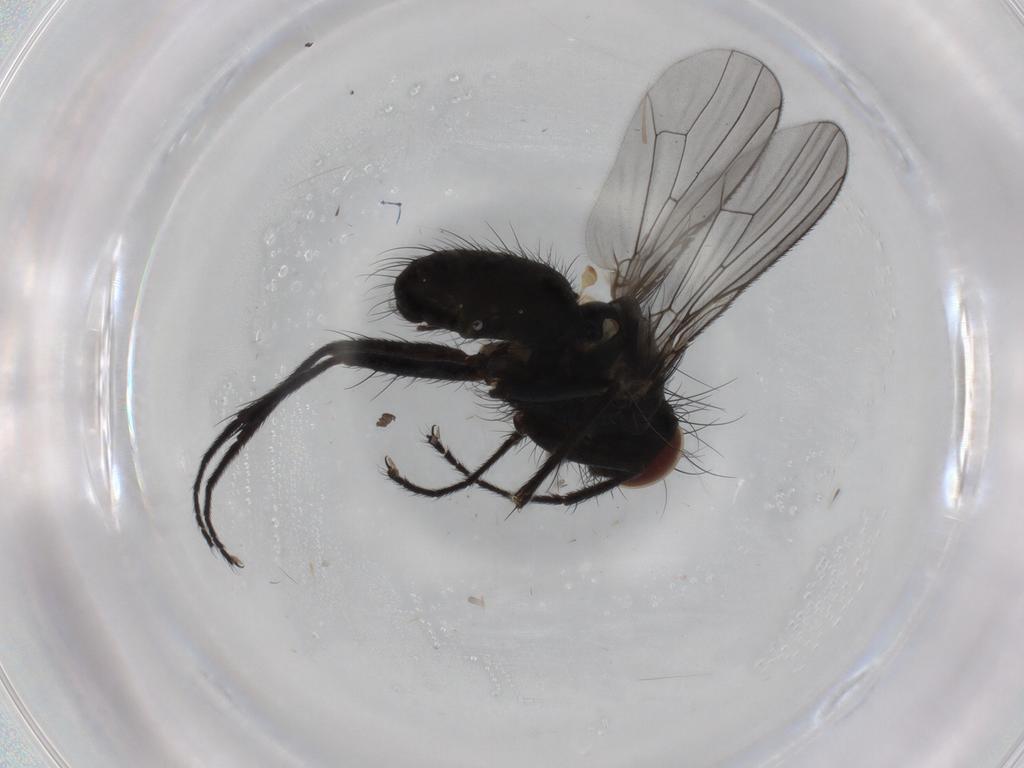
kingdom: Animalia
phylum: Arthropoda
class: Insecta
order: Diptera
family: Muscidae
